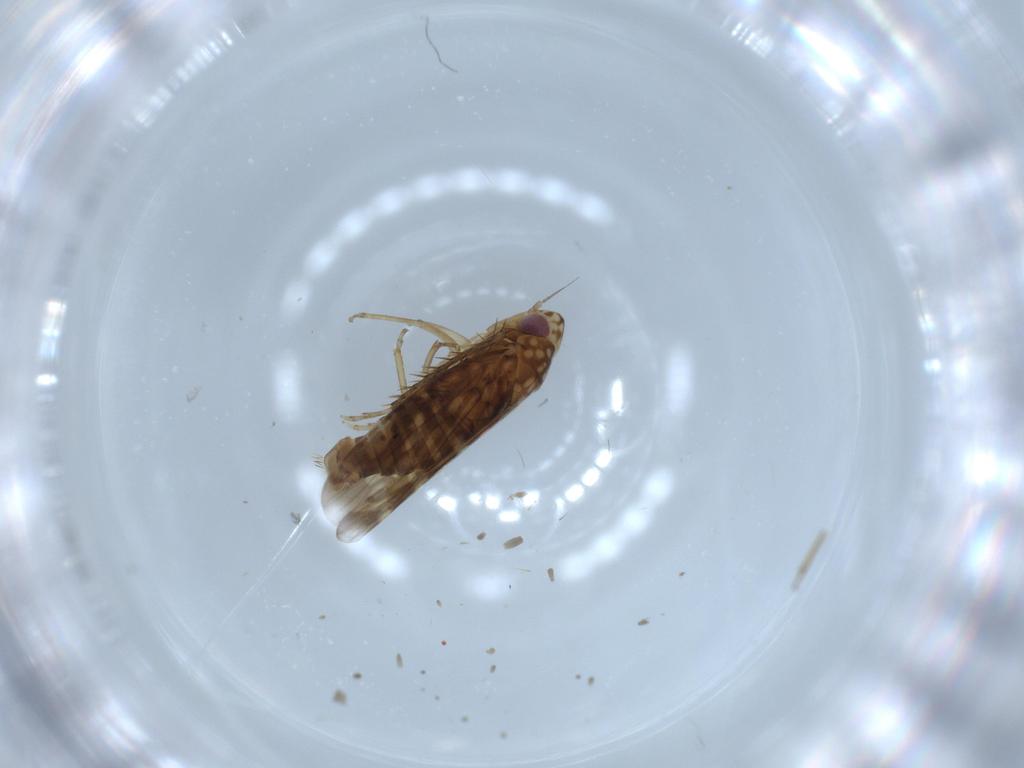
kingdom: Animalia
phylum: Arthropoda
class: Insecta
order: Hemiptera
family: Cicadellidae
